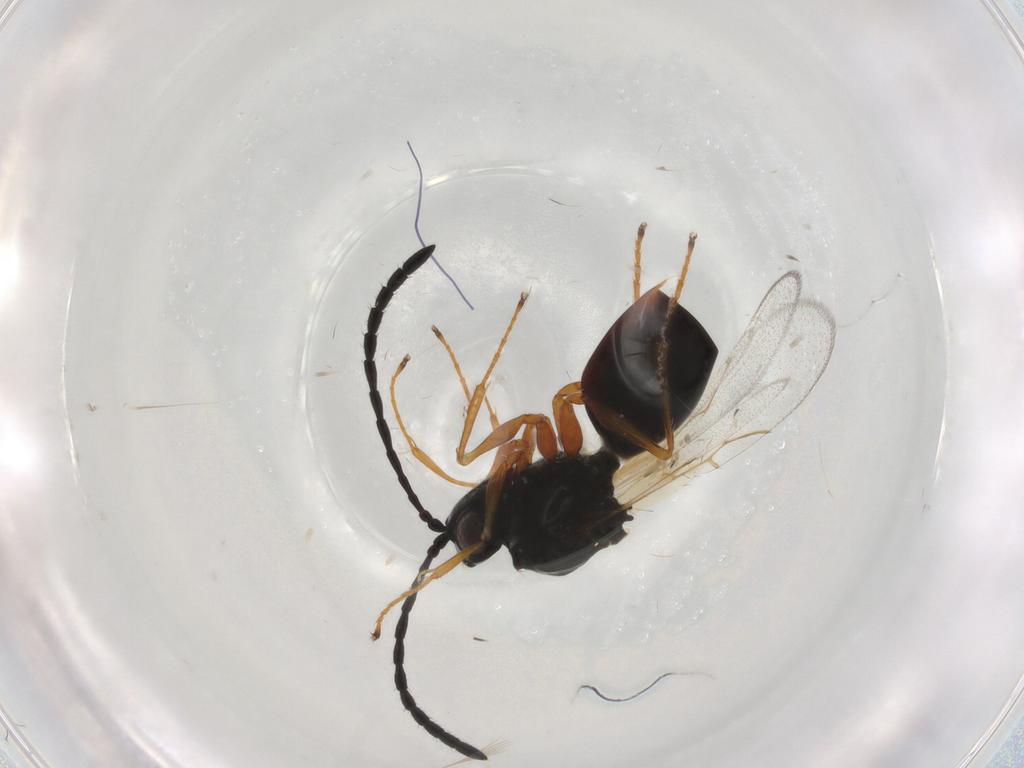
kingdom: Animalia
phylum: Arthropoda
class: Insecta
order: Hymenoptera
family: Figitidae
